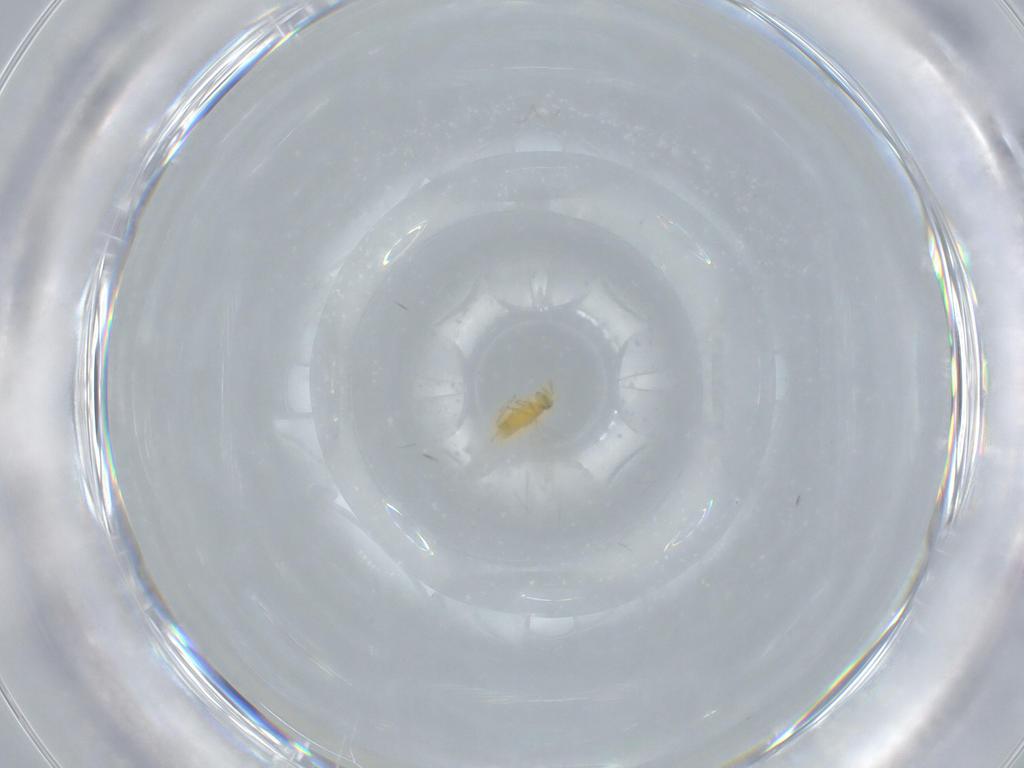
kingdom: Animalia
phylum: Arthropoda
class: Insecta
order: Hymenoptera
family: Aphelinidae
